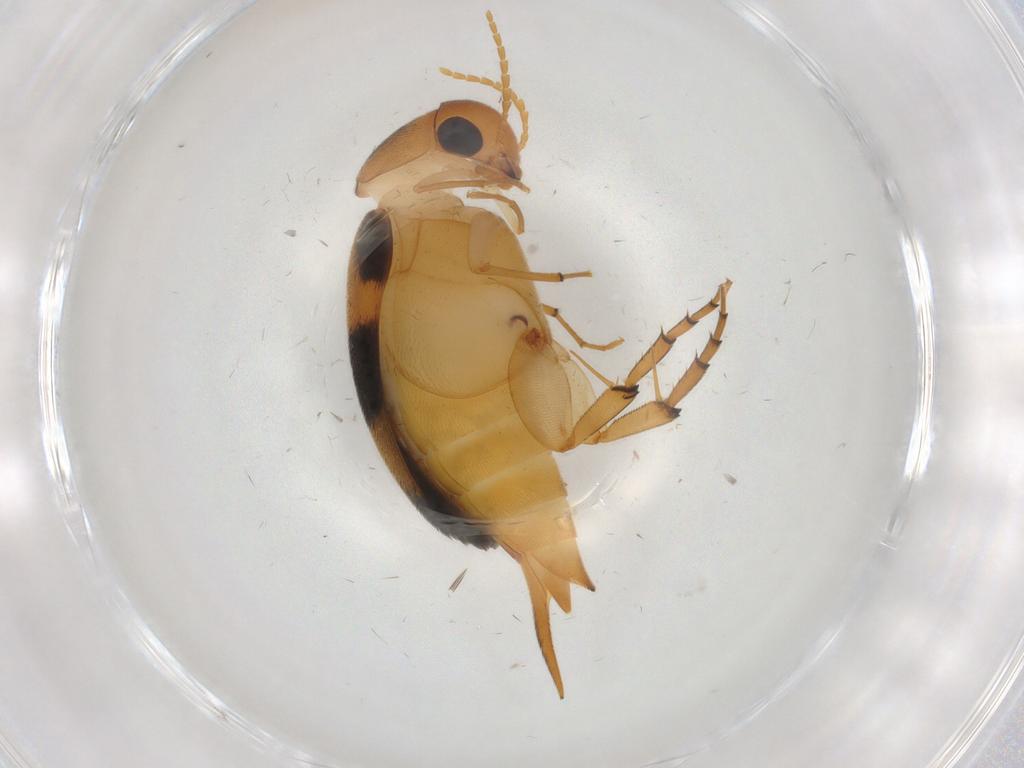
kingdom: Animalia
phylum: Arthropoda
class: Insecta
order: Coleoptera
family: Mordellidae
